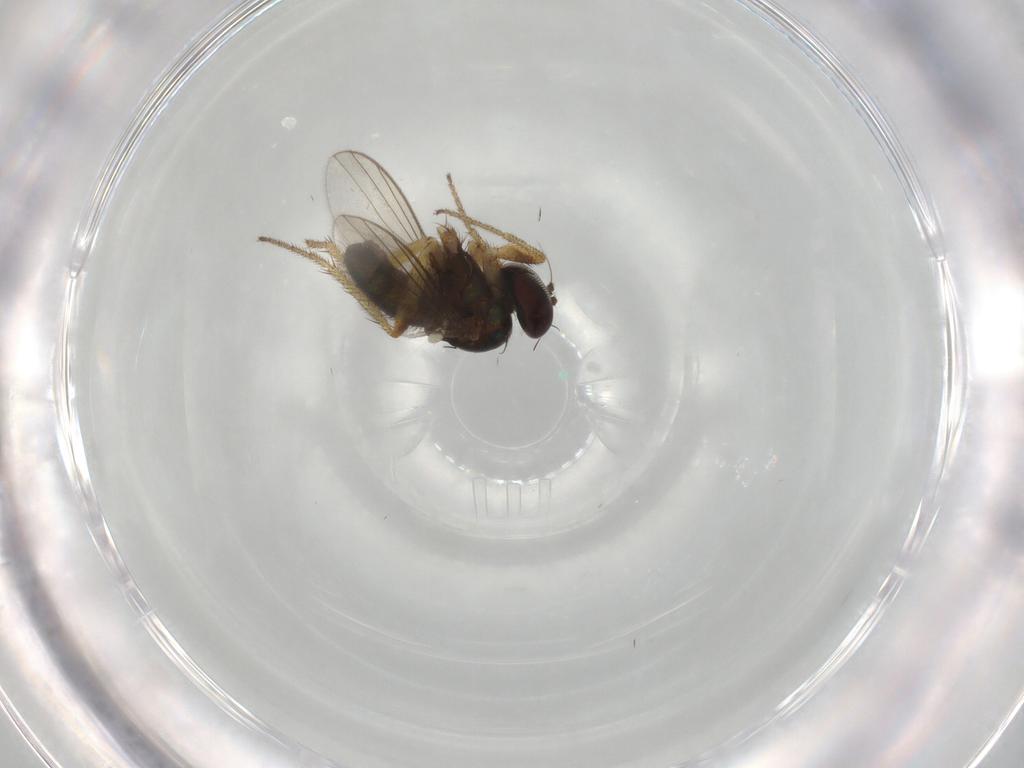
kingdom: Animalia
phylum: Arthropoda
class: Insecta
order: Diptera
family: Dolichopodidae
